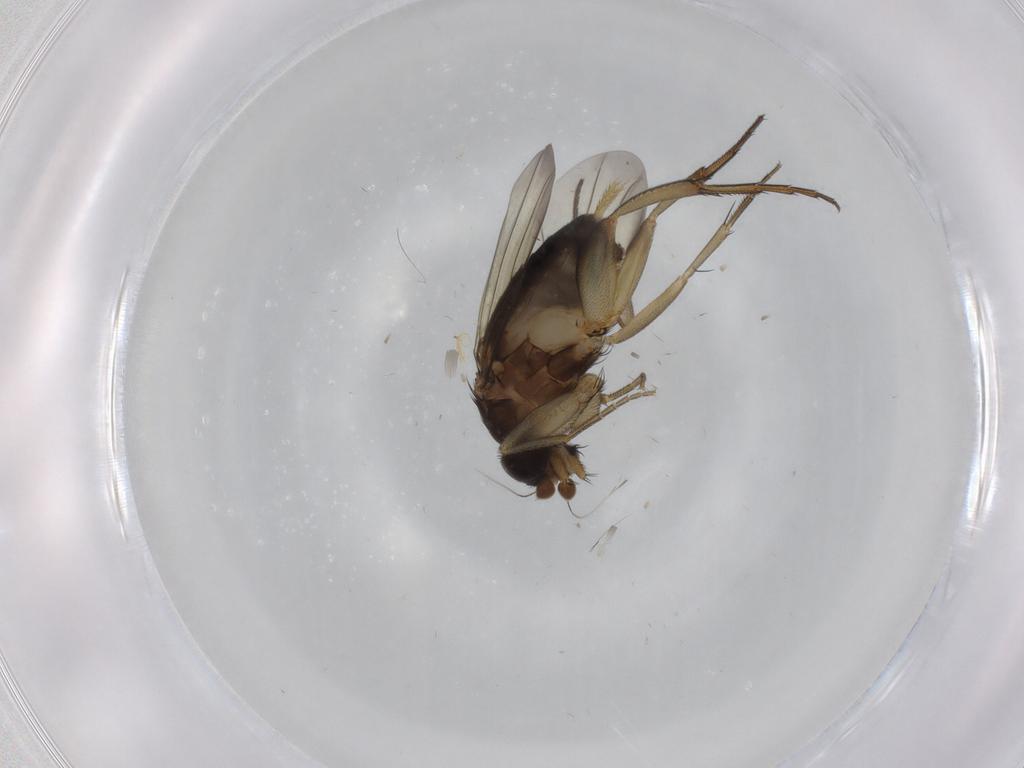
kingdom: Animalia
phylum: Arthropoda
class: Insecta
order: Diptera
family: Phoridae
